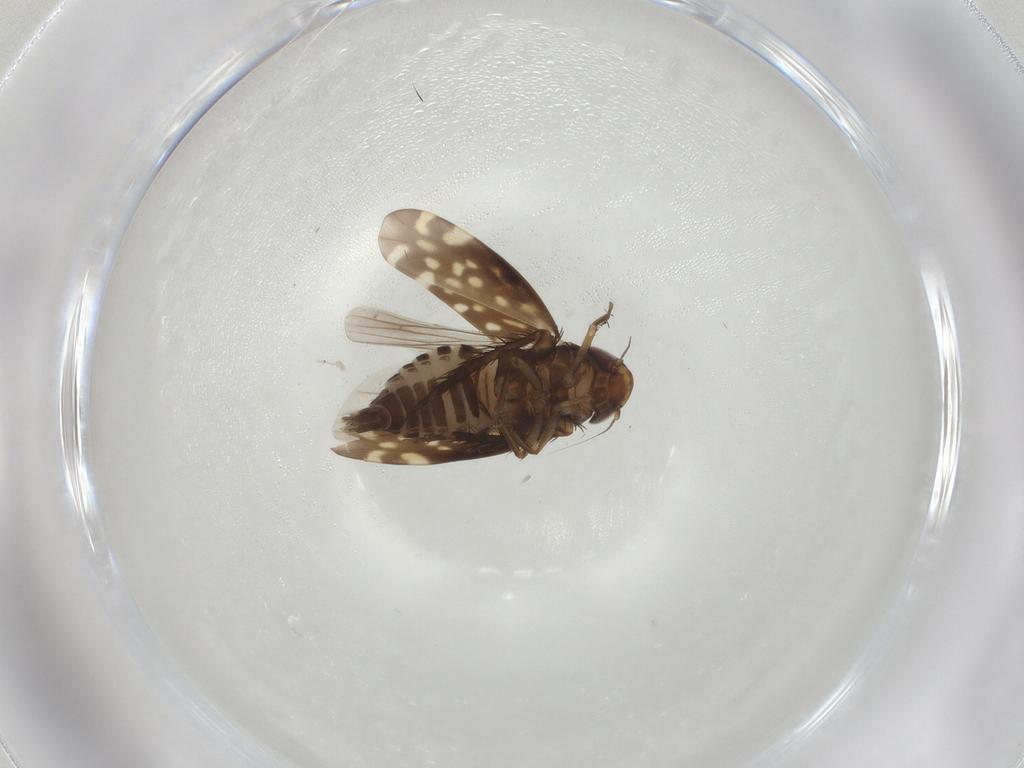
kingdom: Animalia
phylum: Arthropoda
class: Insecta
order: Hemiptera
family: Cicadellidae
